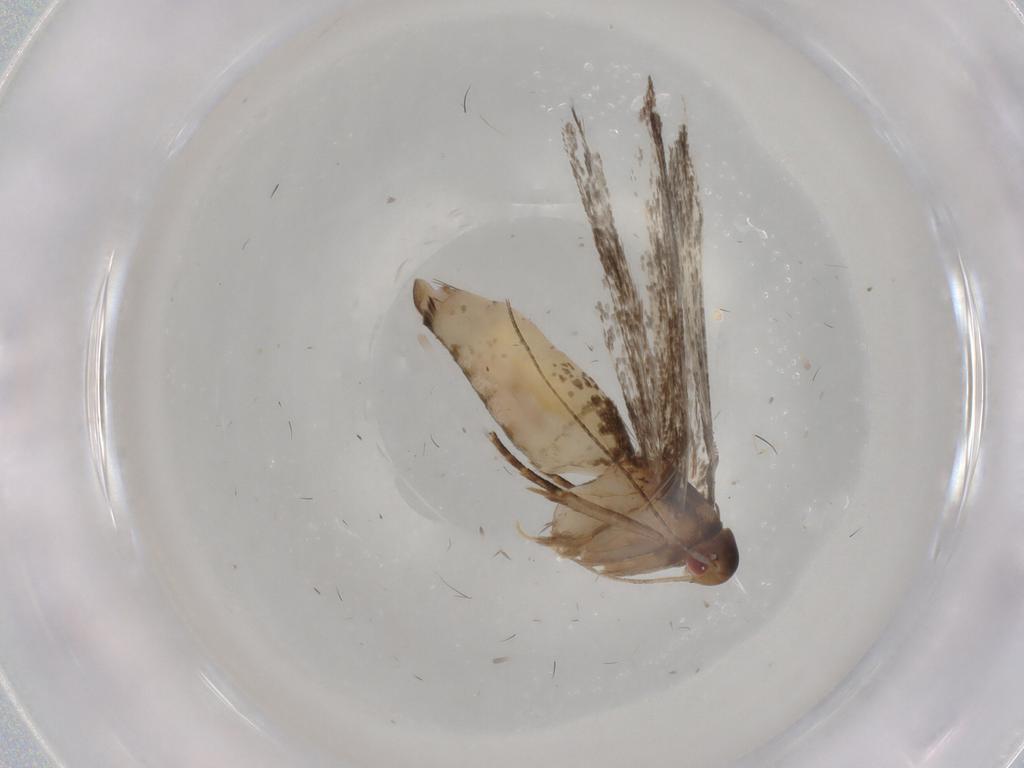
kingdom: Animalia
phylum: Arthropoda
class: Insecta
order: Lepidoptera
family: Gelechiidae
